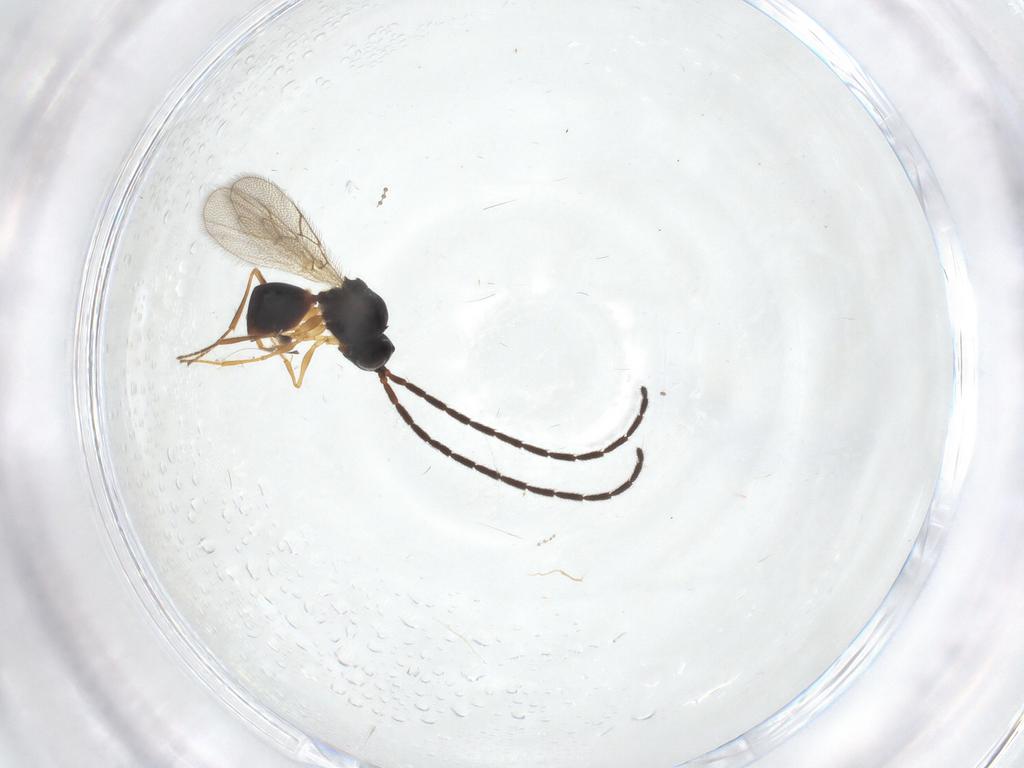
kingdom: Animalia
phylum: Arthropoda
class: Insecta
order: Hymenoptera
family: Figitidae
